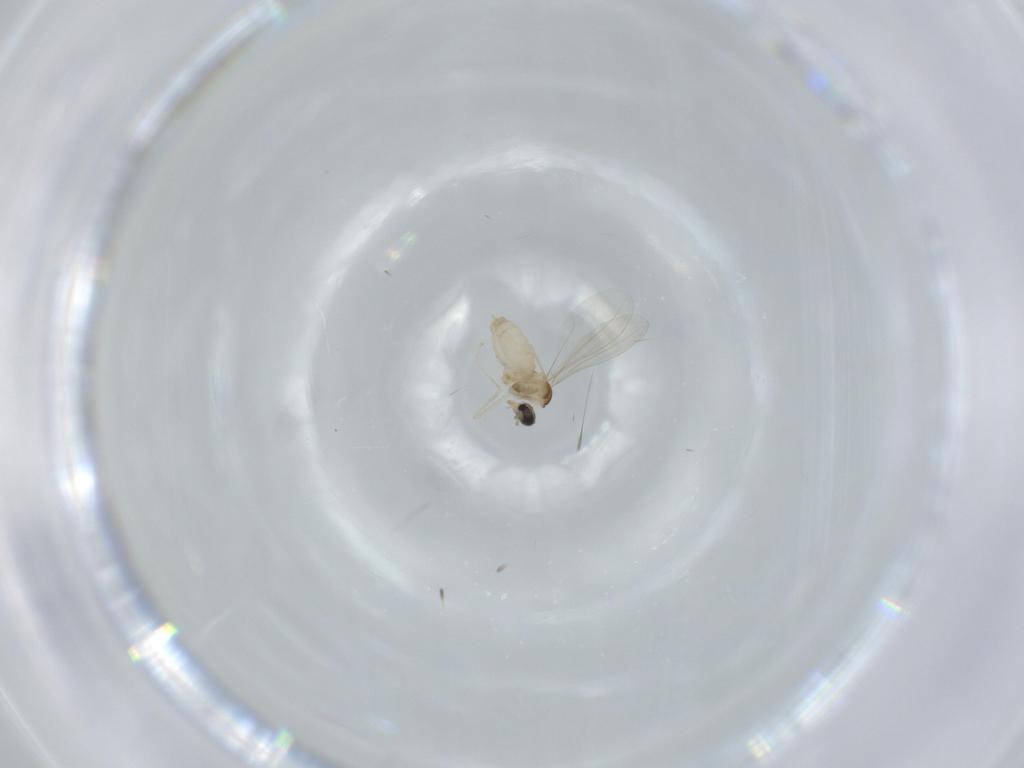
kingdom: Animalia
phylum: Arthropoda
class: Insecta
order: Diptera
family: Cecidomyiidae
